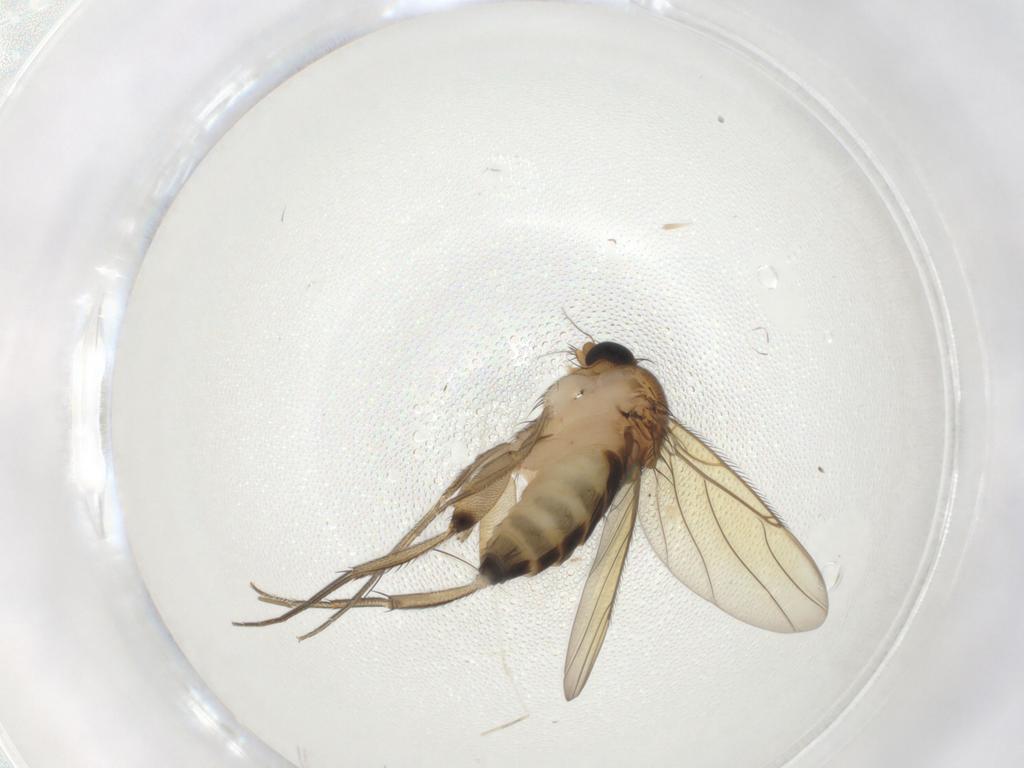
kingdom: Animalia
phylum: Arthropoda
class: Insecta
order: Diptera
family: Phoridae
